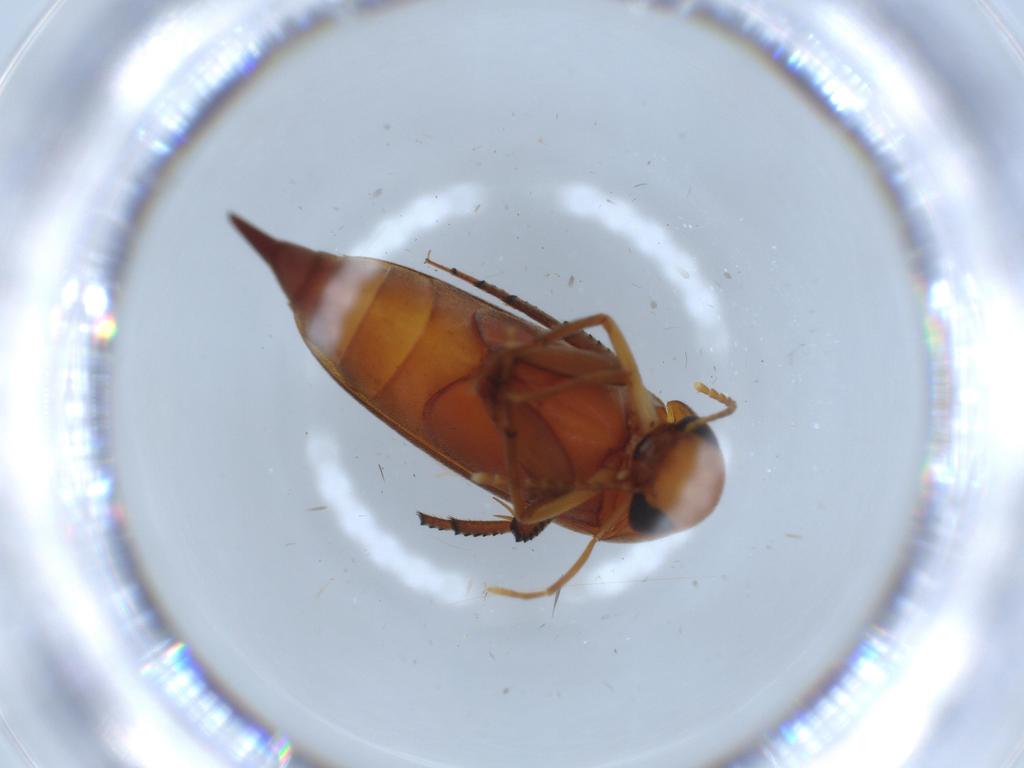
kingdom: Animalia
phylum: Arthropoda
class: Insecta
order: Coleoptera
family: Mordellidae
